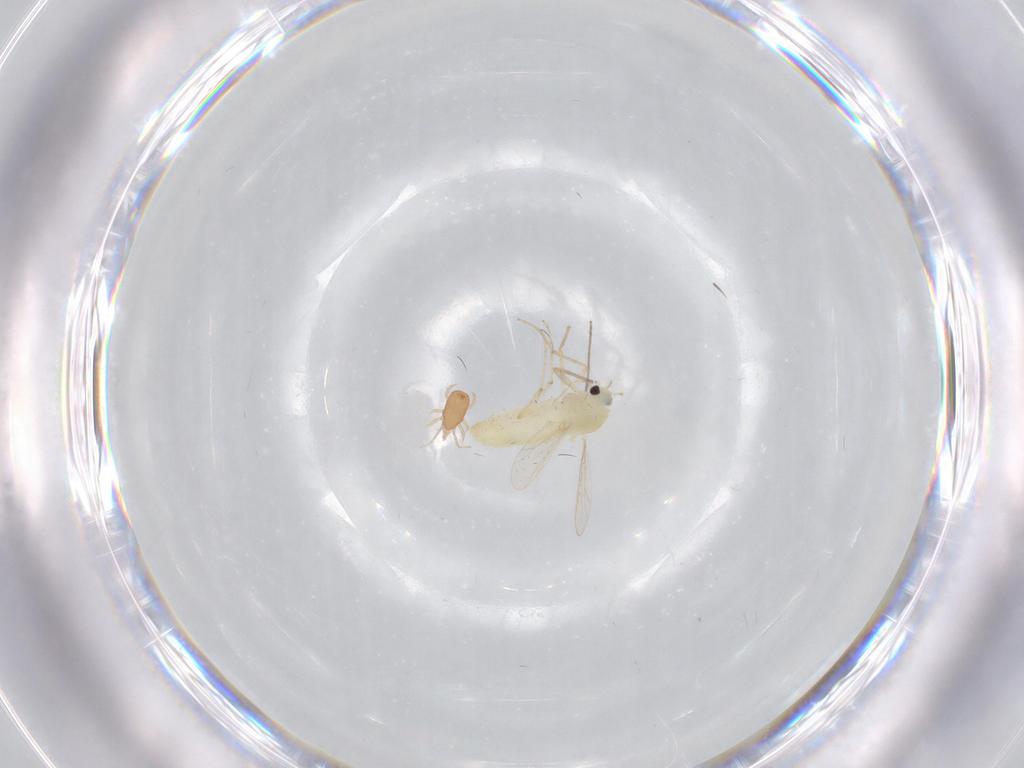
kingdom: Animalia
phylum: Arthropoda
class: Insecta
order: Diptera
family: Chironomidae
